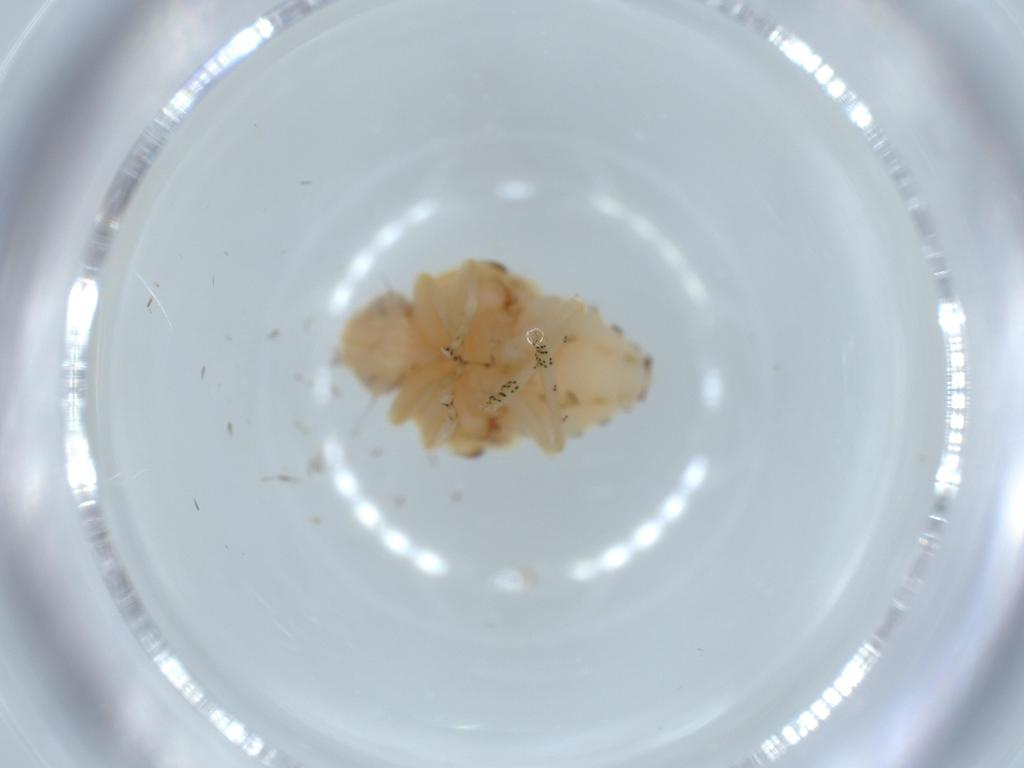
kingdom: Animalia
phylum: Arthropoda
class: Insecta
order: Hemiptera
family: Nogodinidae
